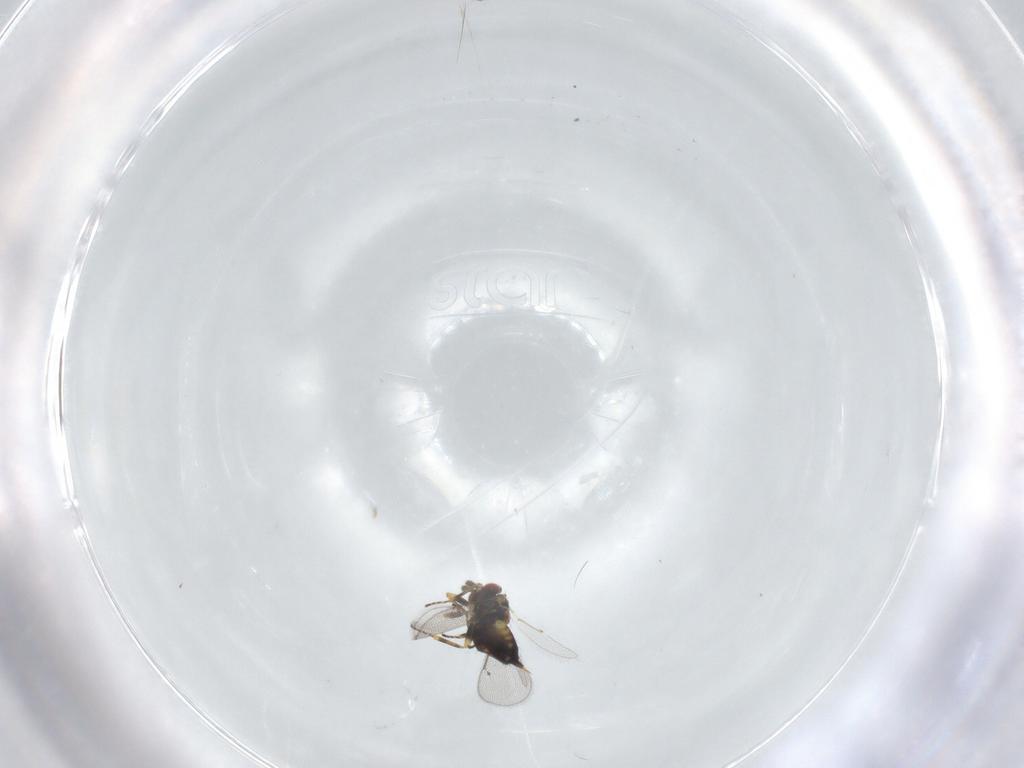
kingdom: Animalia
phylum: Arthropoda
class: Insecta
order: Hymenoptera
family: Eulophidae
